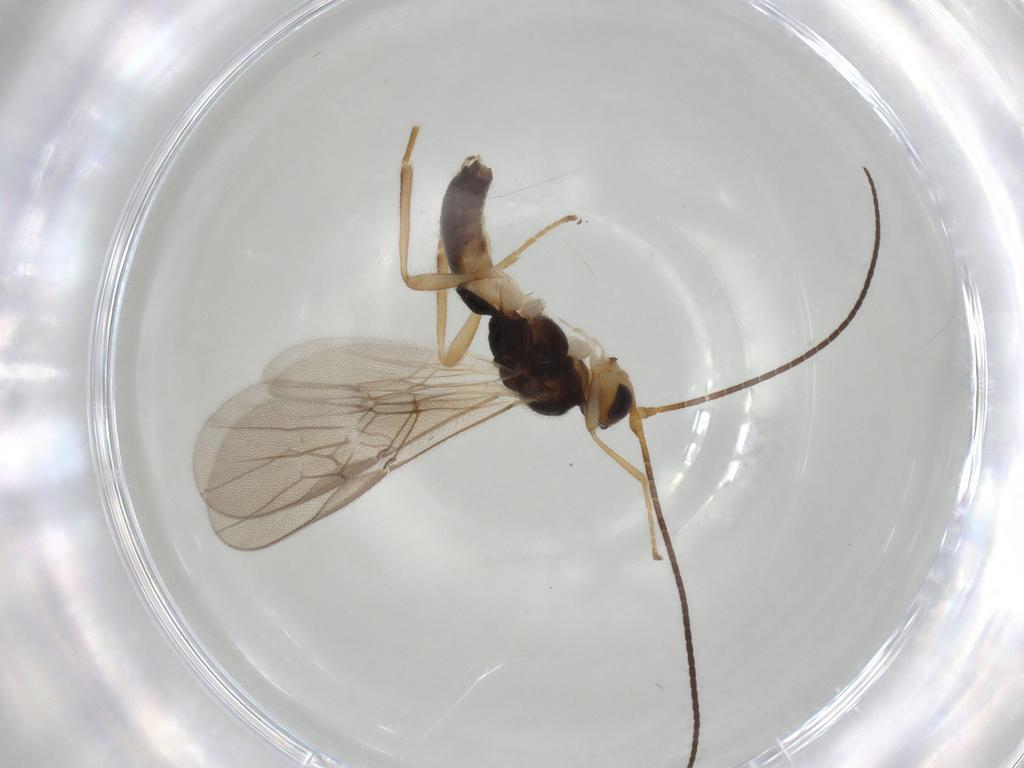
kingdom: Animalia
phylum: Arthropoda
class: Insecta
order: Hymenoptera
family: Braconidae
